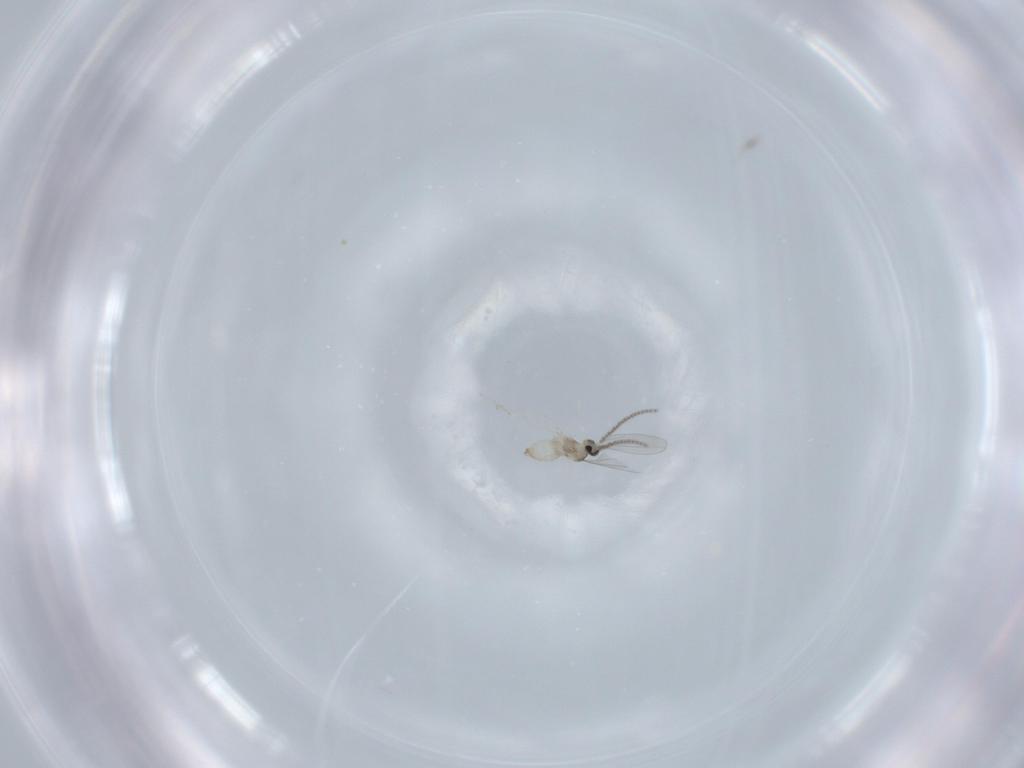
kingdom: Animalia
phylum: Arthropoda
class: Insecta
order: Diptera
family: Cecidomyiidae
